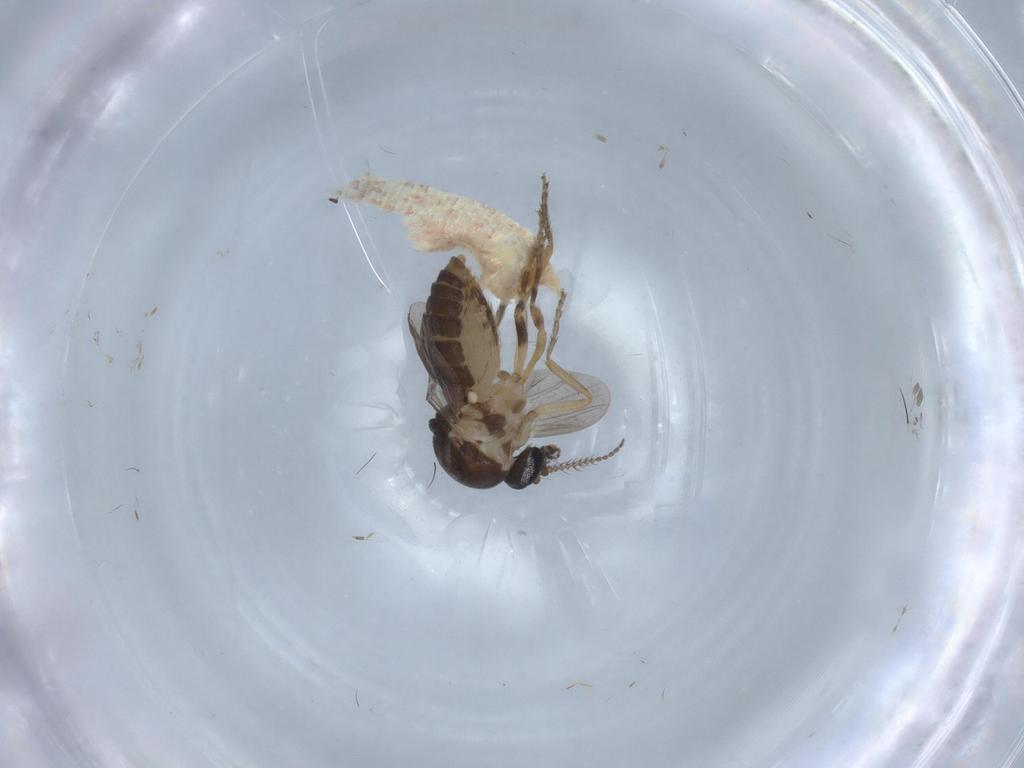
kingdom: Animalia
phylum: Arthropoda
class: Insecta
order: Diptera
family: Chironomidae
